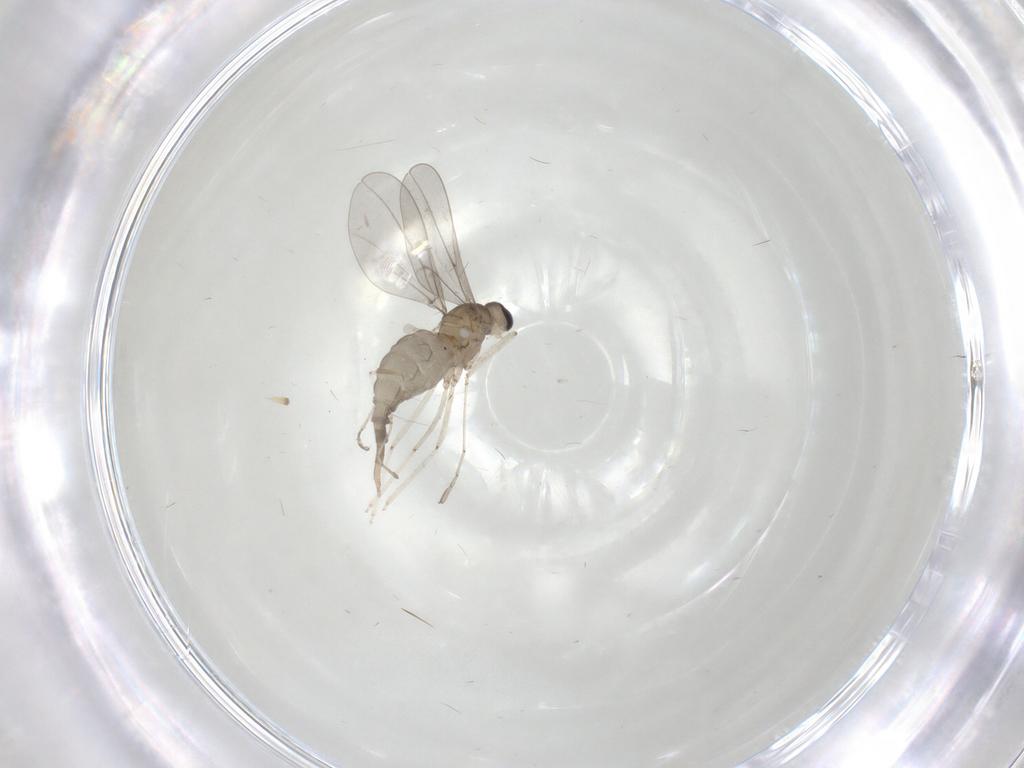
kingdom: Animalia
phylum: Arthropoda
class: Insecta
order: Diptera
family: Cecidomyiidae
